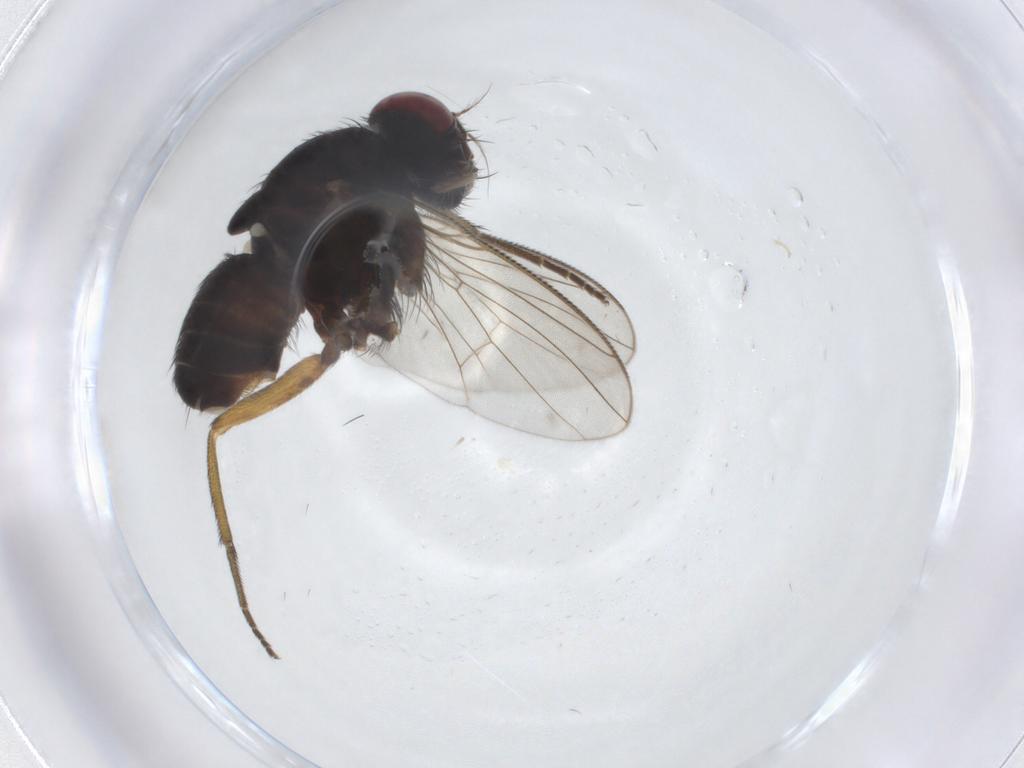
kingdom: Animalia
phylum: Arthropoda
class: Insecta
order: Diptera
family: Muscidae
